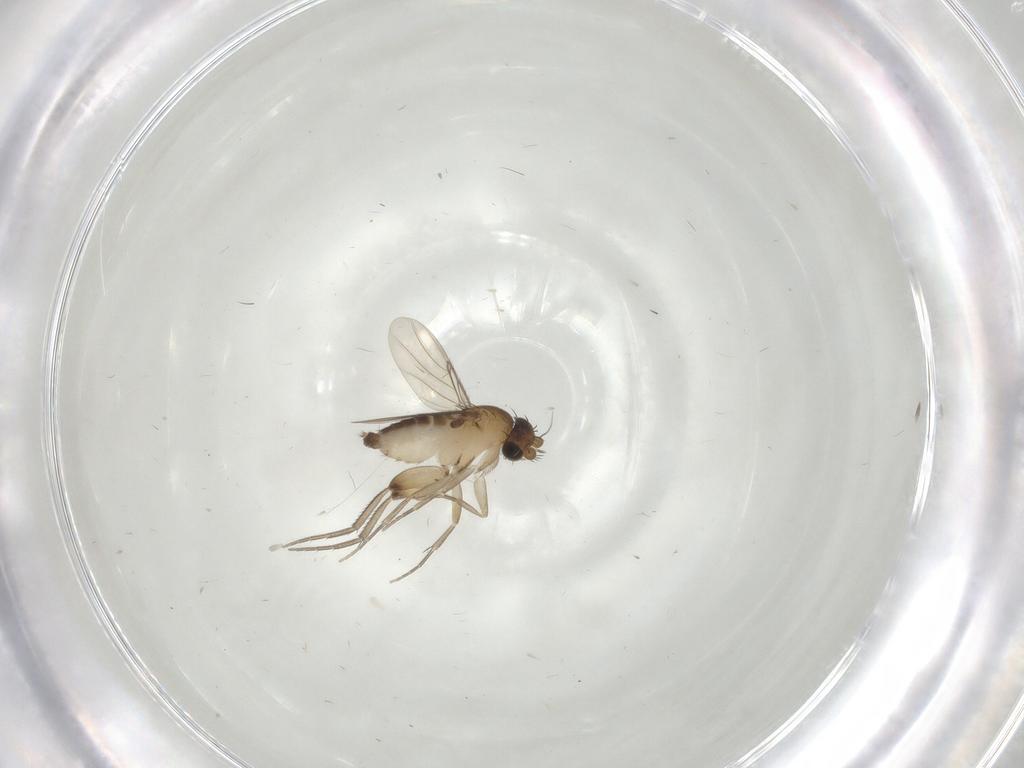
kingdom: Animalia
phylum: Arthropoda
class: Insecta
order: Diptera
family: Phoridae
